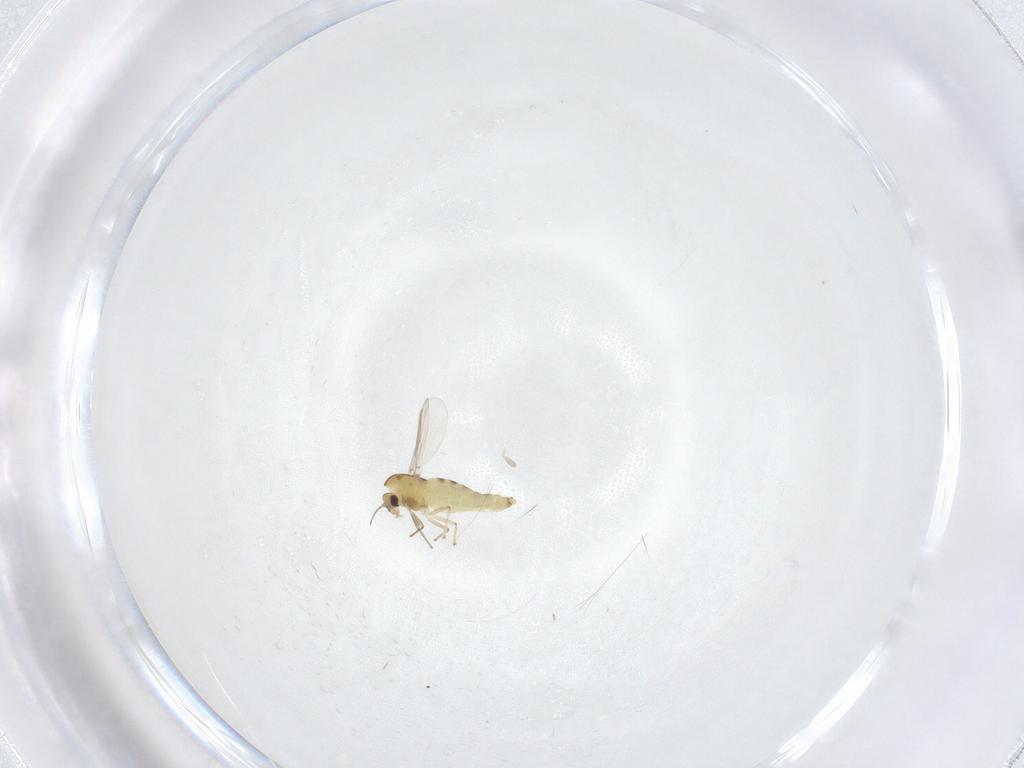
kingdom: Animalia
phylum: Arthropoda
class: Insecta
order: Diptera
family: Chironomidae
